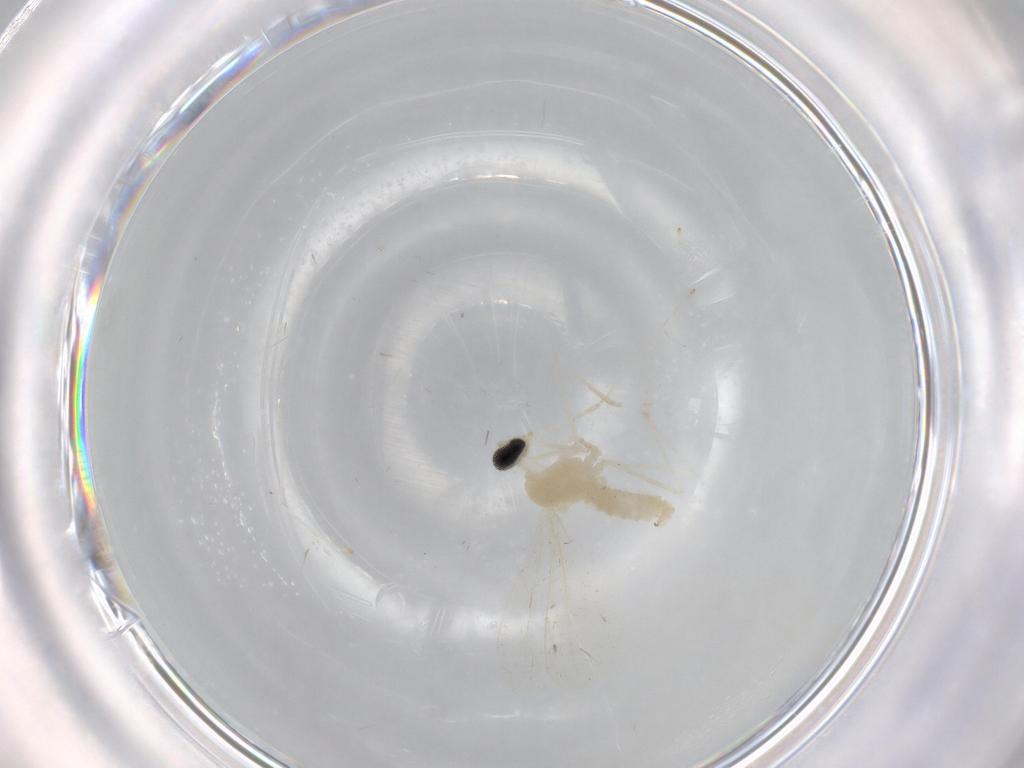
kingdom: Animalia
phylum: Arthropoda
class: Insecta
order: Diptera
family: Cecidomyiidae
